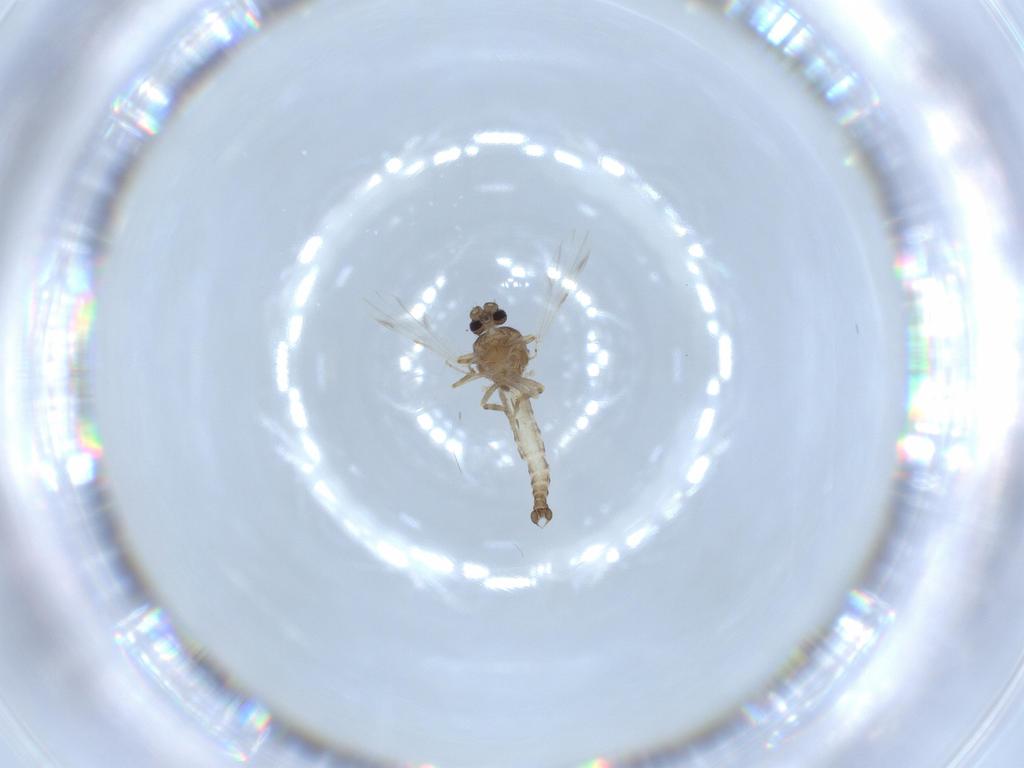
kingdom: Animalia
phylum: Arthropoda
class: Insecta
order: Diptera
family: Ceratopogonidae
